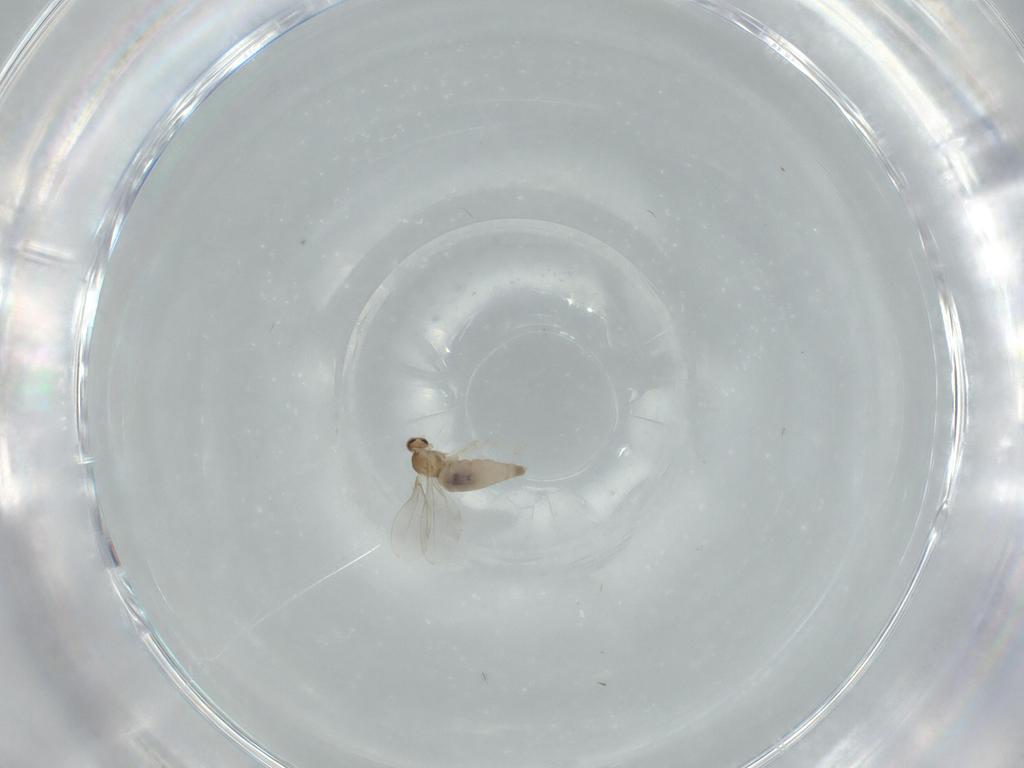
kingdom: Animalia
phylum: Arthropoda
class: Insecta
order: Diptera
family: Cecidomyiidae
